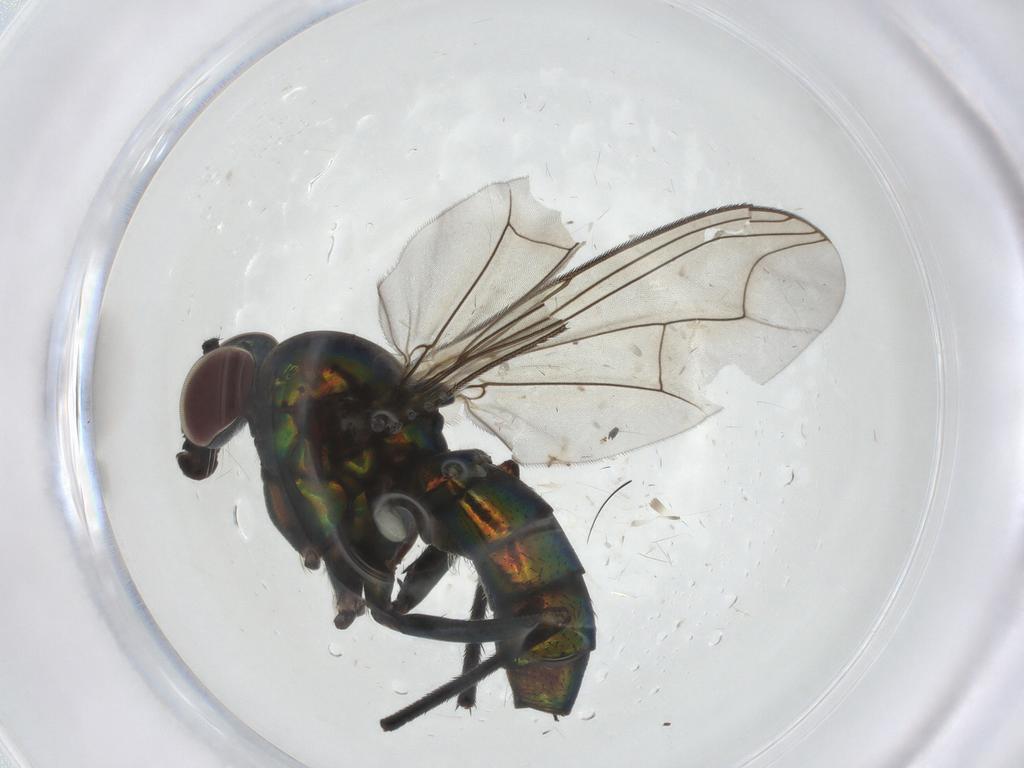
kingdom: Animalia
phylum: Arthropoda
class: Insecta
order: Diptera
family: Dolichopodidae
